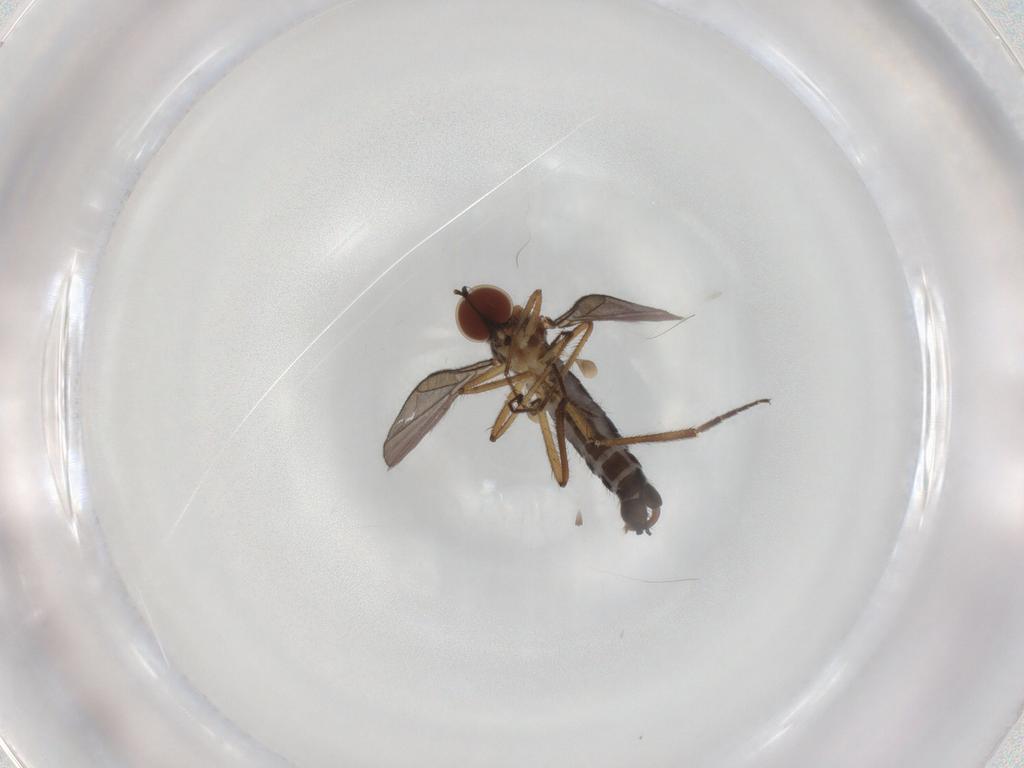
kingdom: Animalia
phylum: Arthropoda
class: Insecta
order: Diptera
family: Hybotidae
